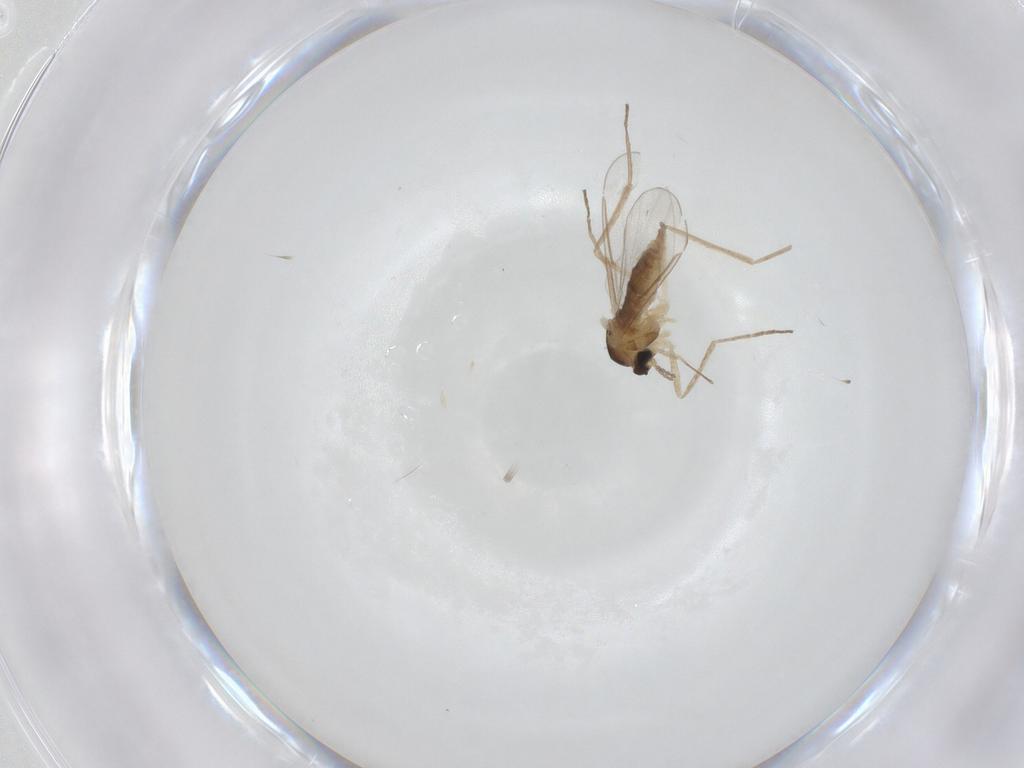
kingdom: Animalia
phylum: Arthropoda
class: Insecta
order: Diptera
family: Cecidomyiidae
